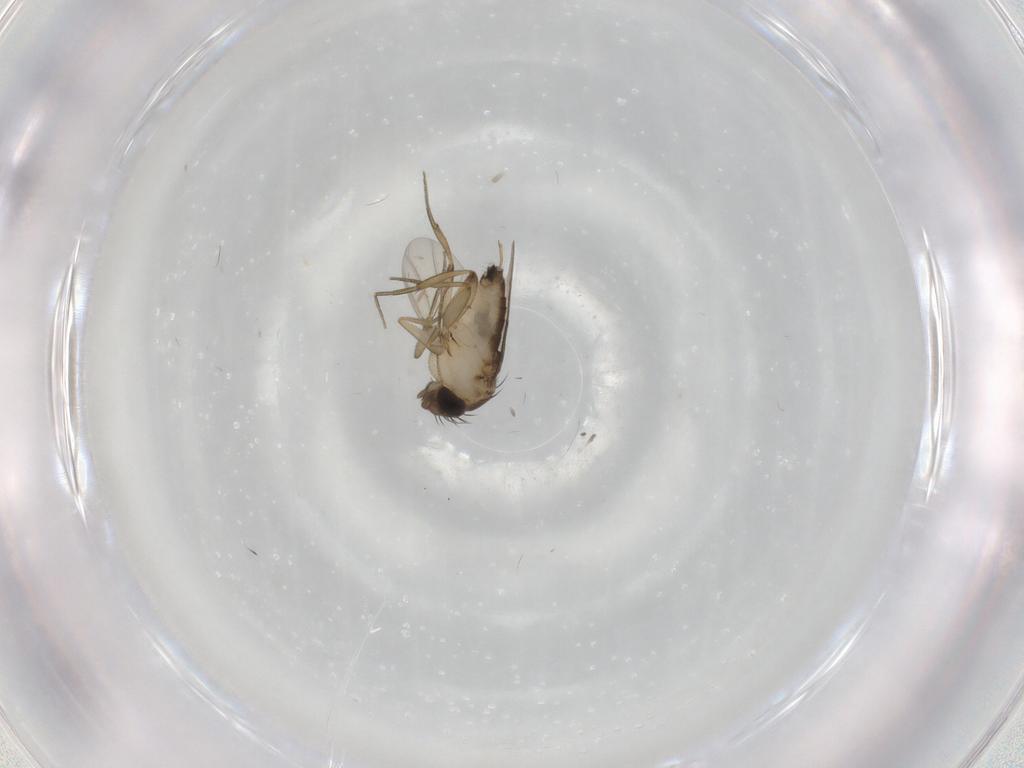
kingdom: Animalia
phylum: Arthropoda
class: Insecta
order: Diptera
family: Phoridae
